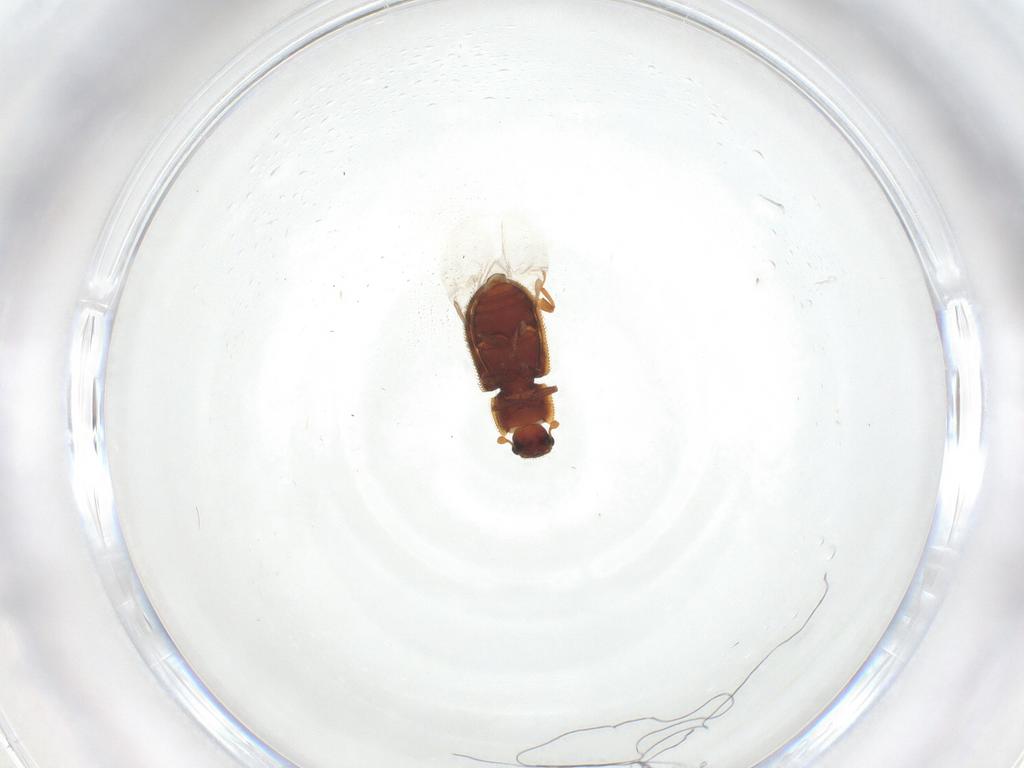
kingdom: Animalia
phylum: Arthropoda
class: Insecta
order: Coleoptera
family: Zopheridae
